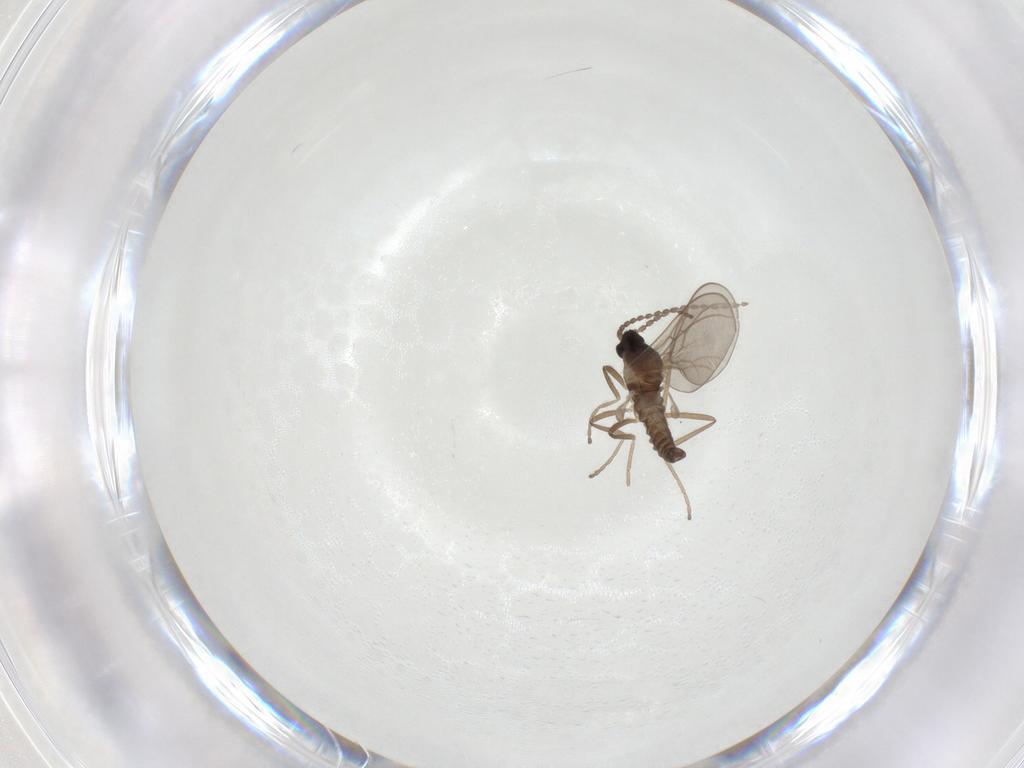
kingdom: Animalia
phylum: Arthropoda
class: Insecta
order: Diptera
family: Cecidomyiidae
